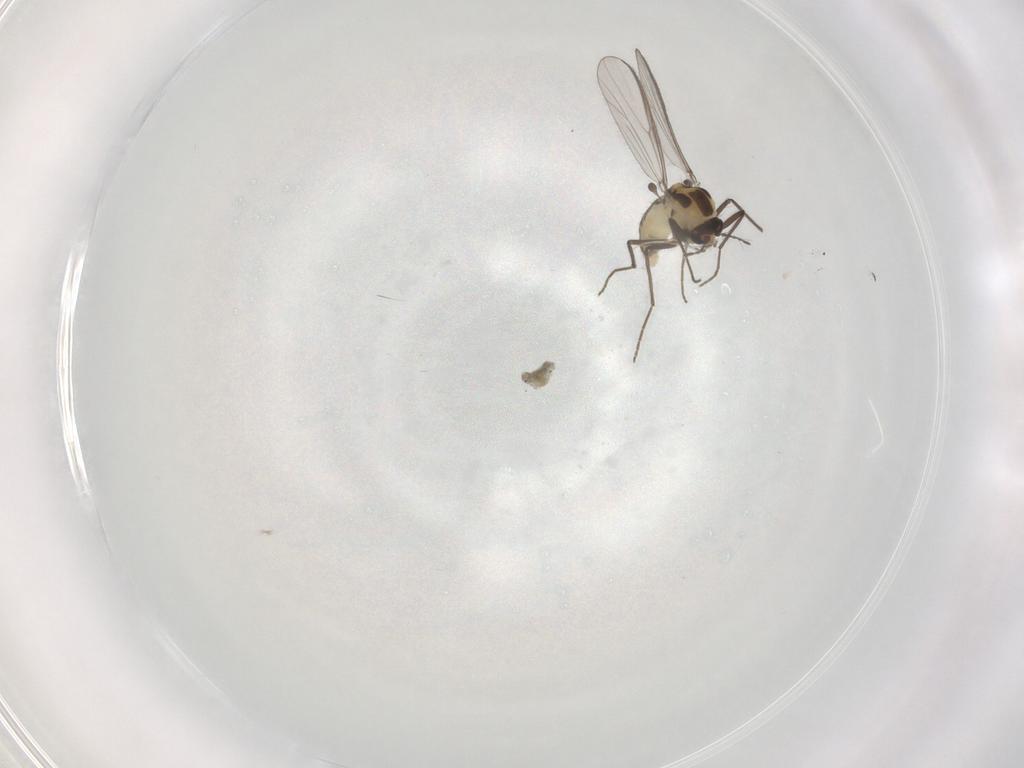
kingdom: Animalia
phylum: Arthropoda
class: Insecta
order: Diptera
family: Chironomidae
